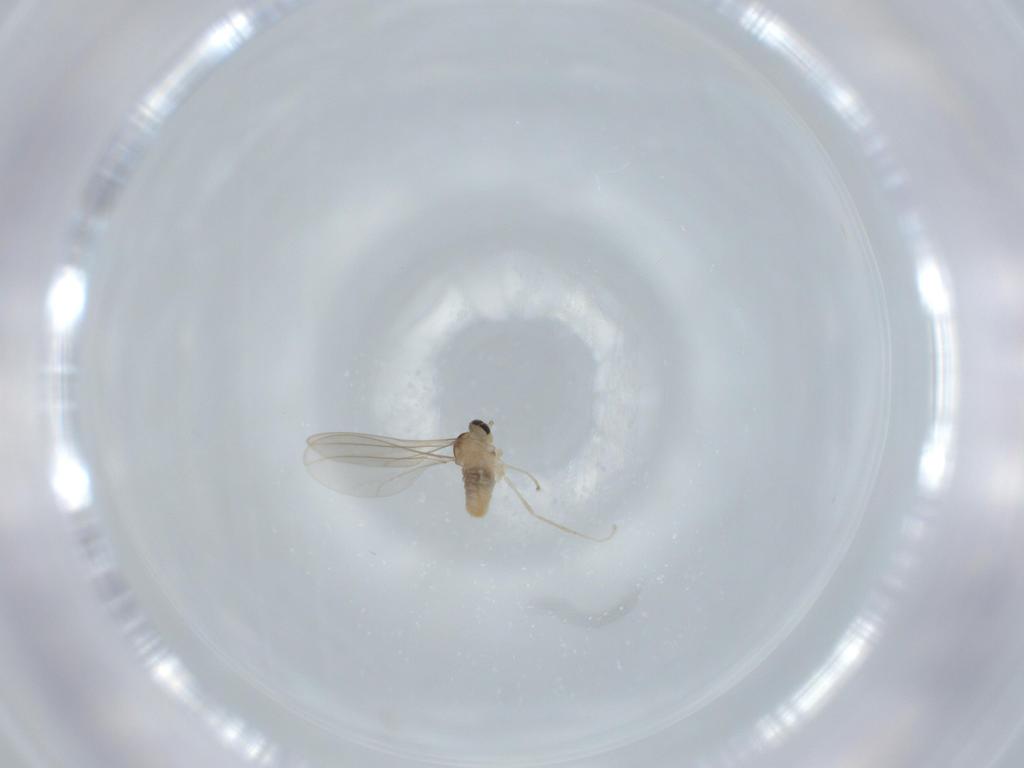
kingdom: Animalia
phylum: Arthropoda
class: Insecta
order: Diptera
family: Cecidomyiidae
